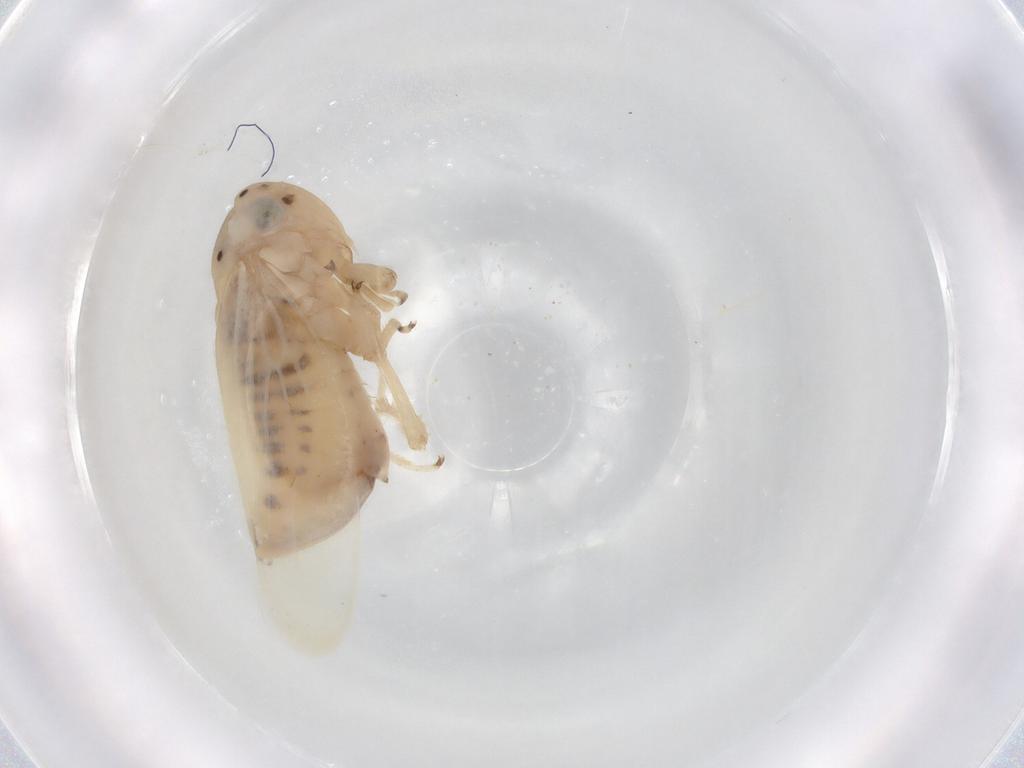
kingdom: Animalia
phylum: Arthropoda
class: Insecta
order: Hemiptera
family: Cicadellidae
